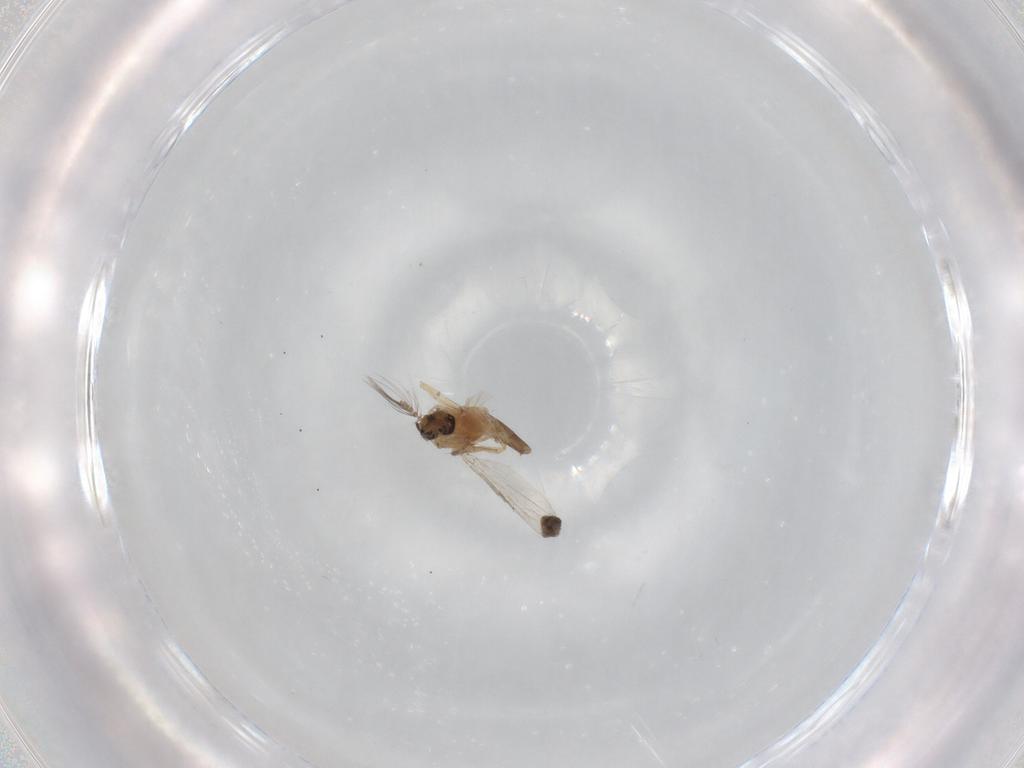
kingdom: Animalia
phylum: Arthropoda
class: Insecta
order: Diptera
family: Ceratopogonidae
